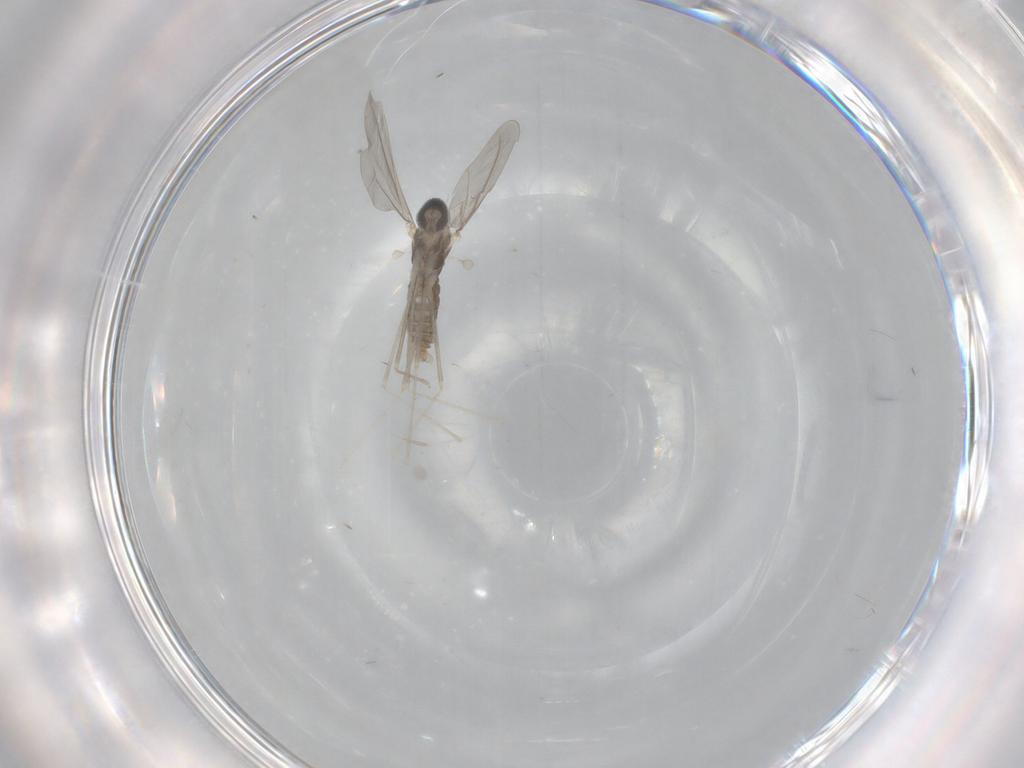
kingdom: Animalia
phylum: Arthropoda
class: Insecta
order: Diptera
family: Cecidomyiidae
